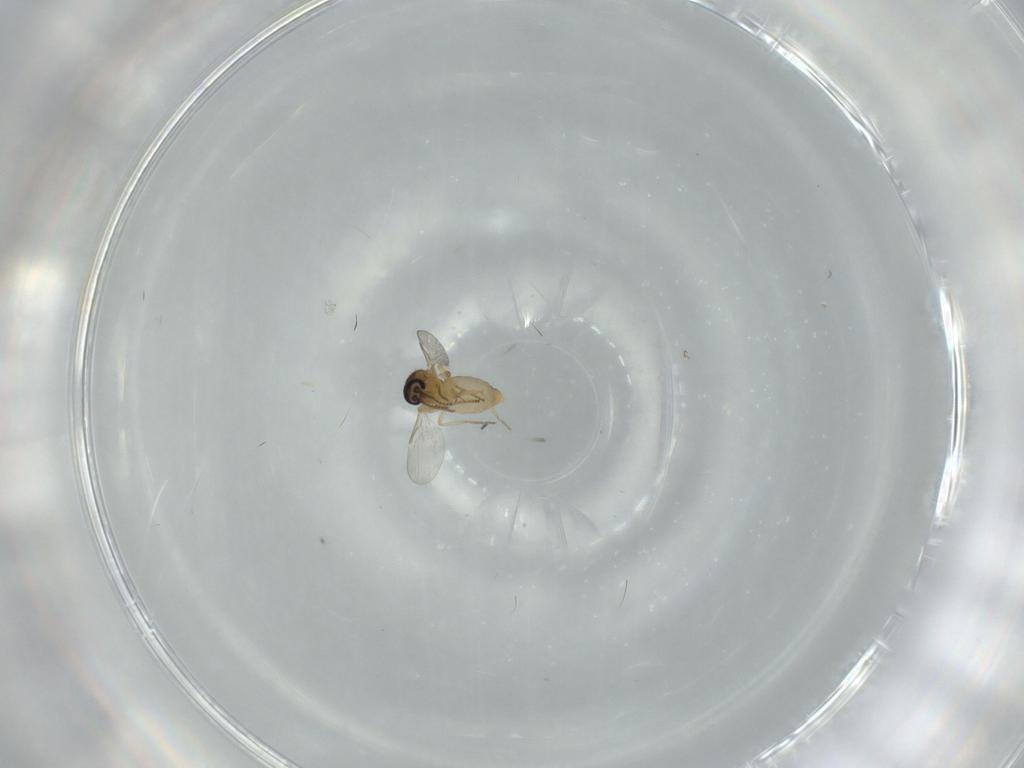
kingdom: Animalia
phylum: Arthropoda
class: Insecta
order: Diptera
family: Ceratopogonidae
